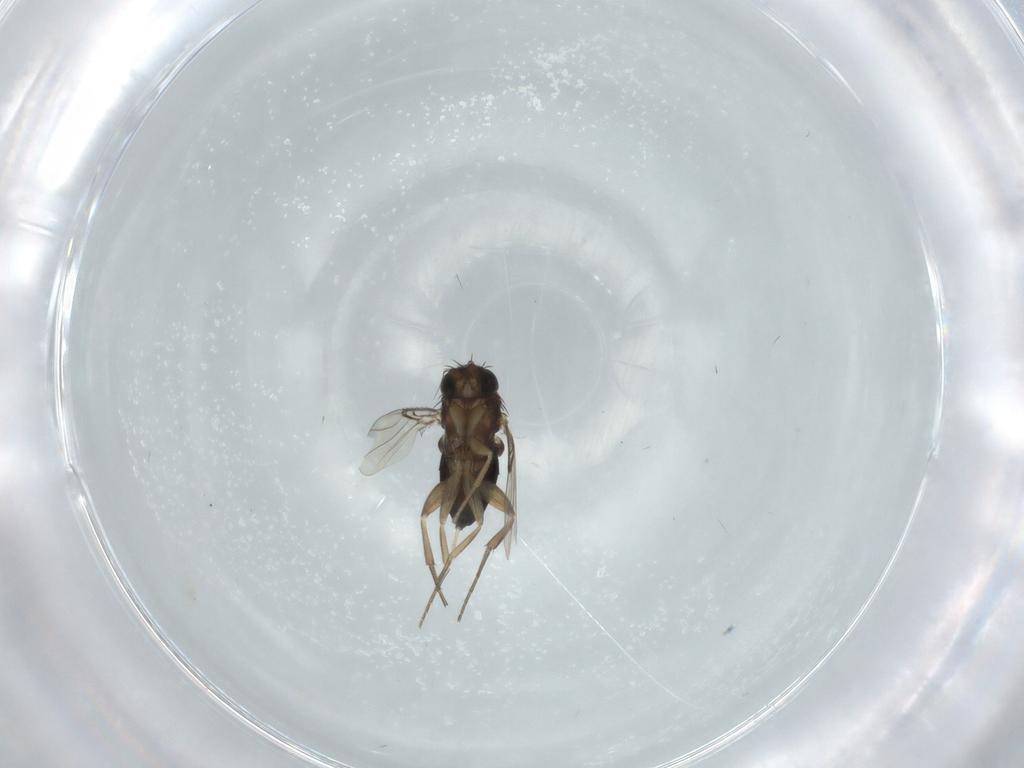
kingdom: Animalia
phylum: Arthropoda
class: Insecta
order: Diptera
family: Phoridae
